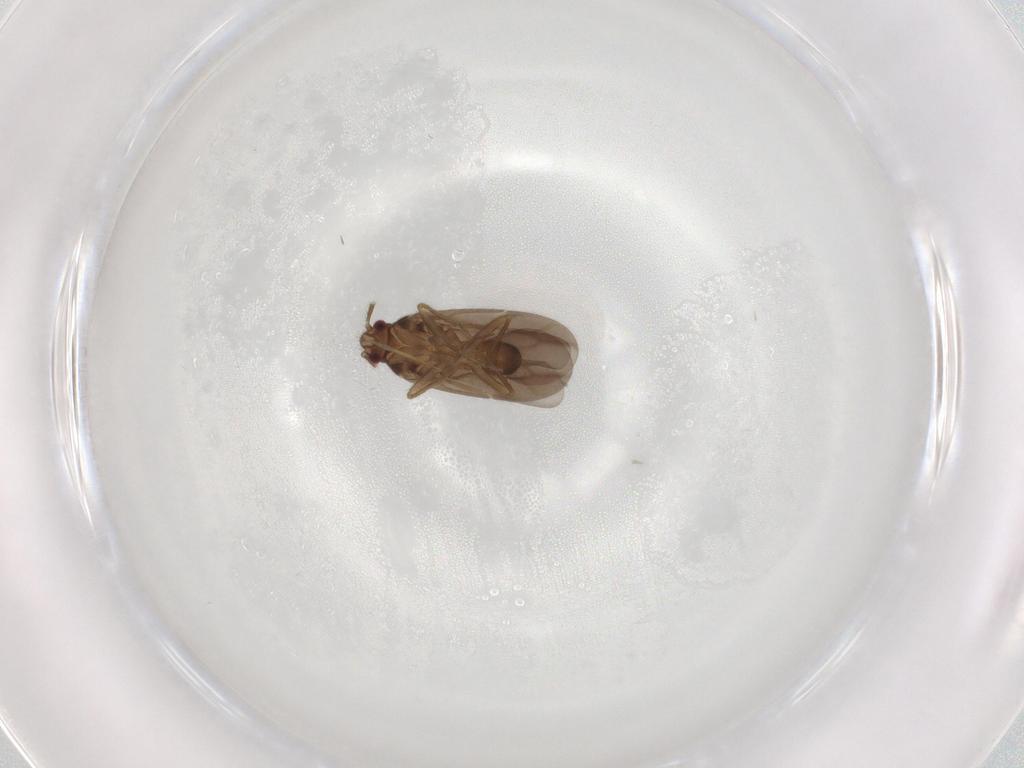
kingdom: Animalia
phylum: Arthropoda
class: Insecta
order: Hemiptera
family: Ceratocombidae
